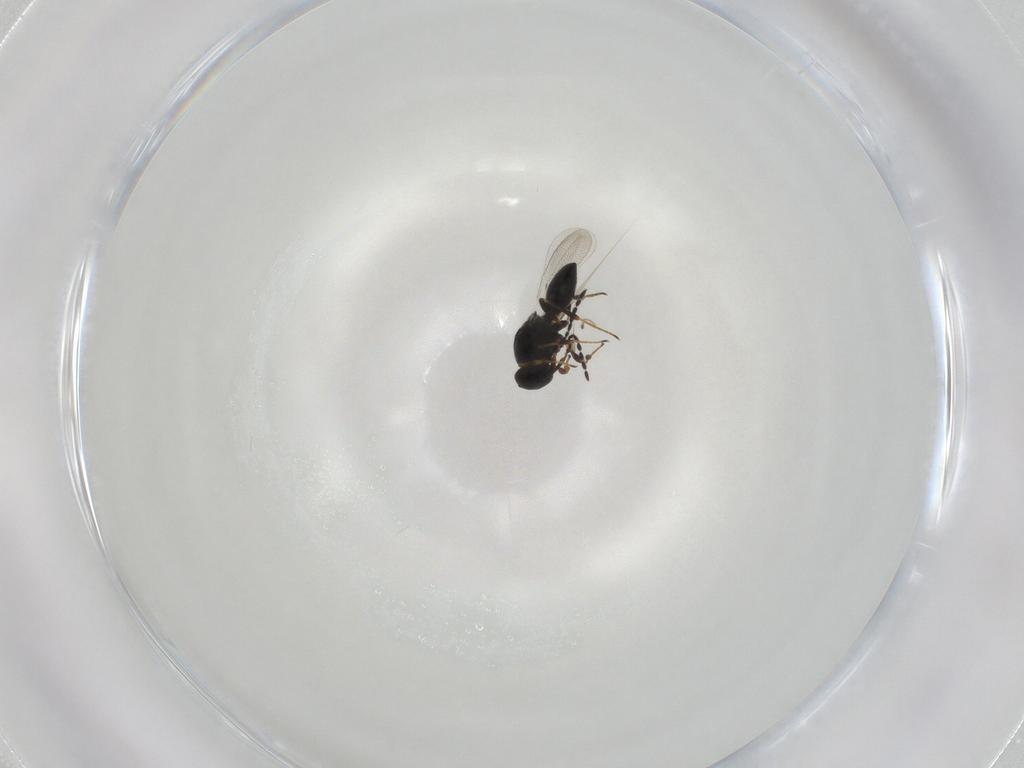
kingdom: Animalia
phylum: Arthropoda
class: Insecta
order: Hymenoptera
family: Platygastridae
